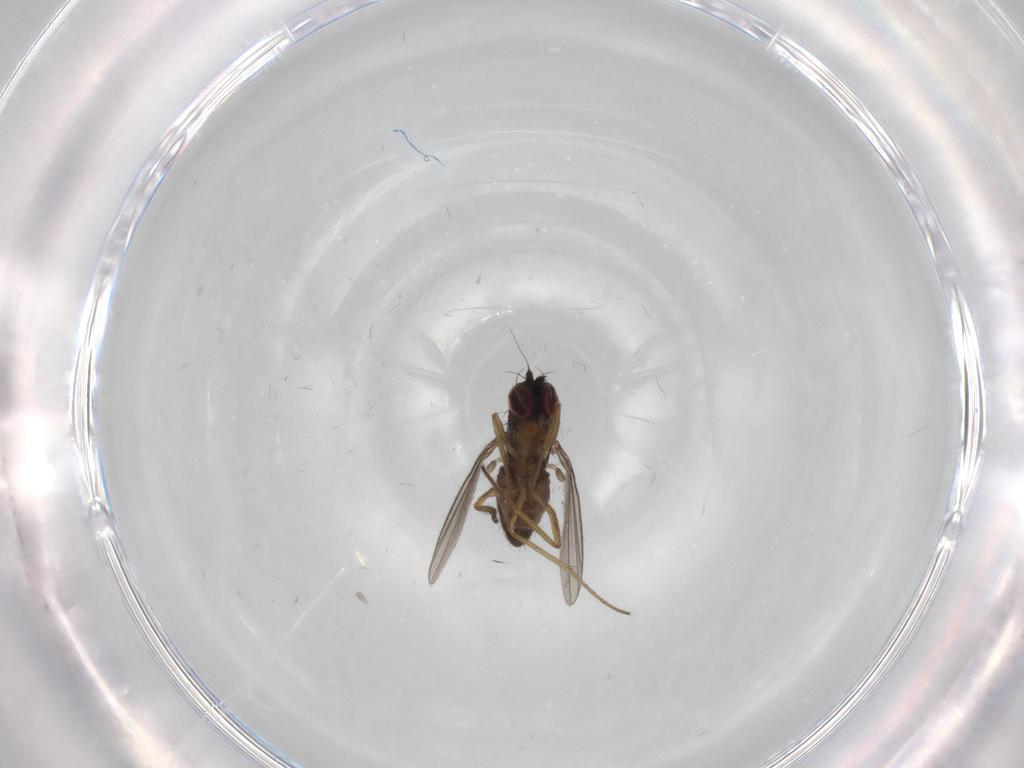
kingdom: Animalia
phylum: Arthropoda
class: Insecta
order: Diptera
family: Dolichopodidae
